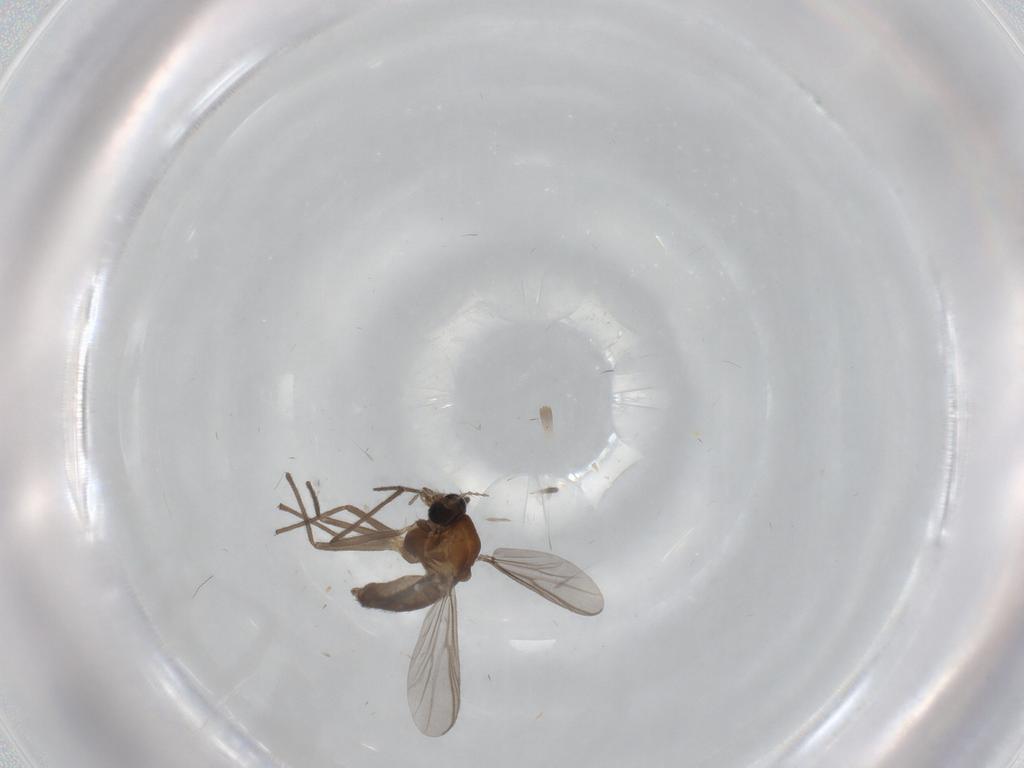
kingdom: Animalia
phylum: Arthropoda
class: Insecta
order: Diptera
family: Chironomidae
